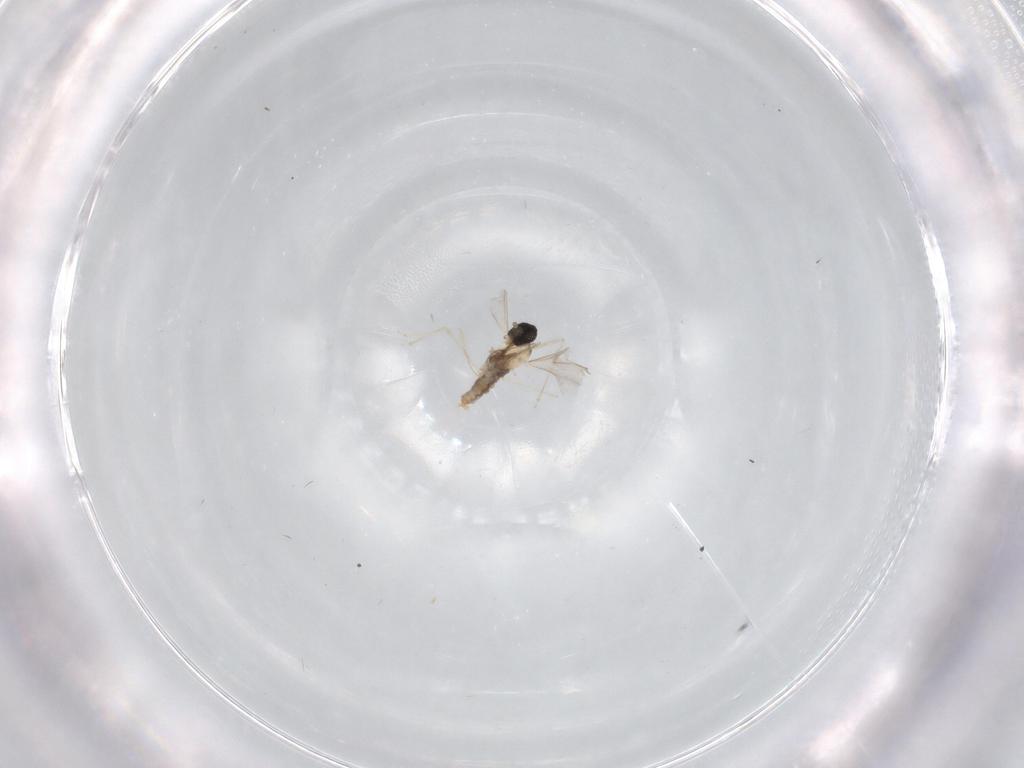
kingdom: Animalia
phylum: Arthropoda
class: Insecta
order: Diptera
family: Cecidomyiidae
